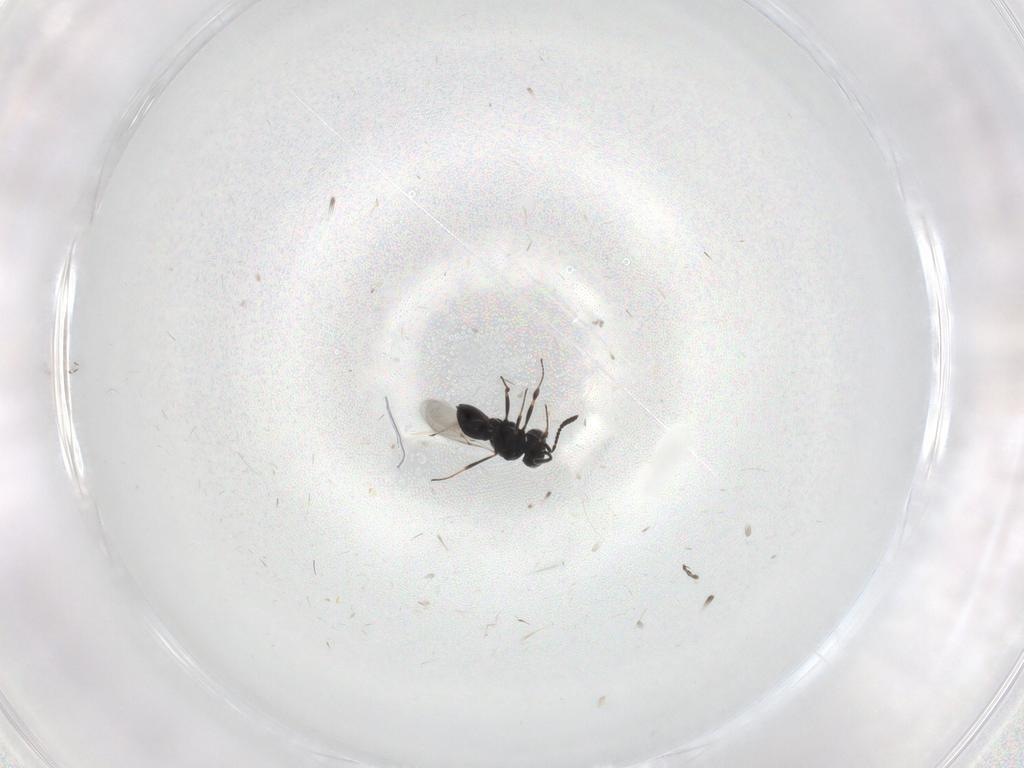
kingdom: Animalia
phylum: Arthropoda
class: Insecta
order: Hymenoptera
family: Scelionidae
